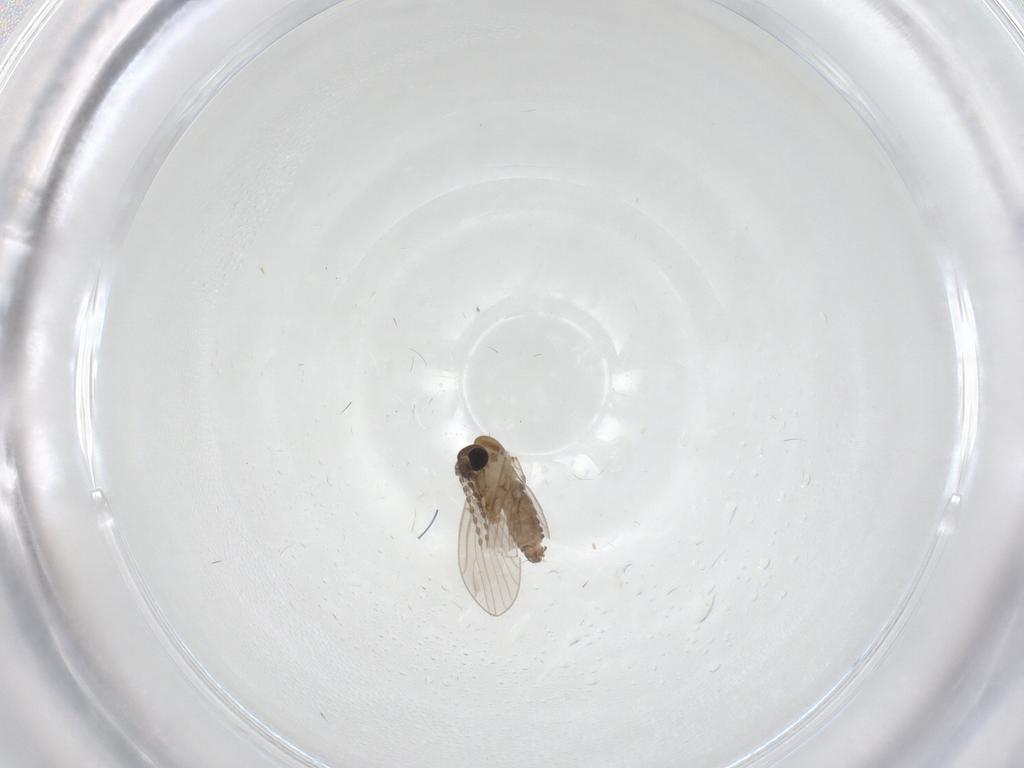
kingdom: Animalia
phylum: Arthropoda
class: Insecta
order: Diptera
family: Psychodidae
